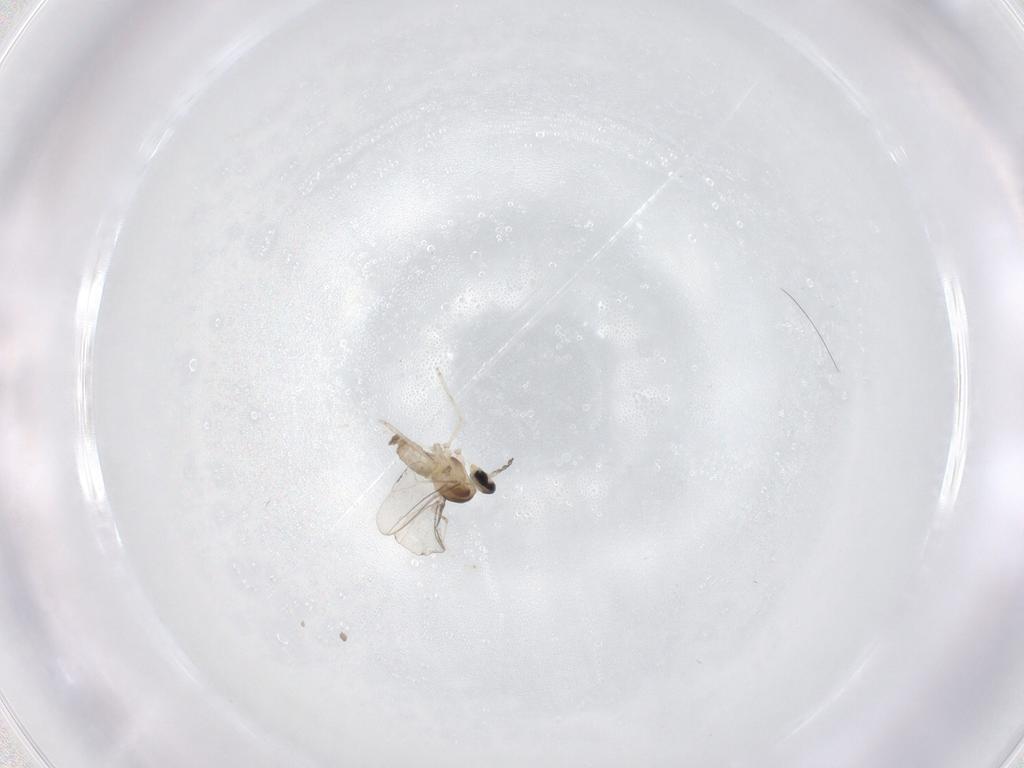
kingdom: Animalia
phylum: Arthropoda
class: Insecta
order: Diptera
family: Cecidomyiidae
